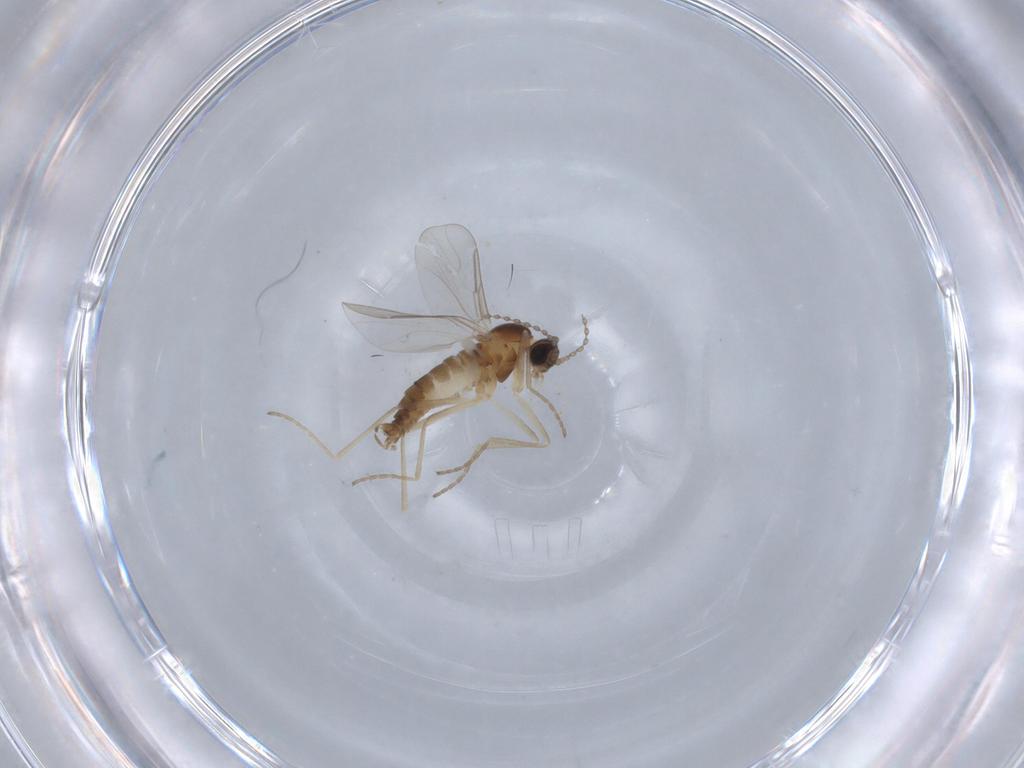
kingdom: Animalia
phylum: Arthropoda
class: Insecta
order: Diptera
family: Cecidomyiidae
